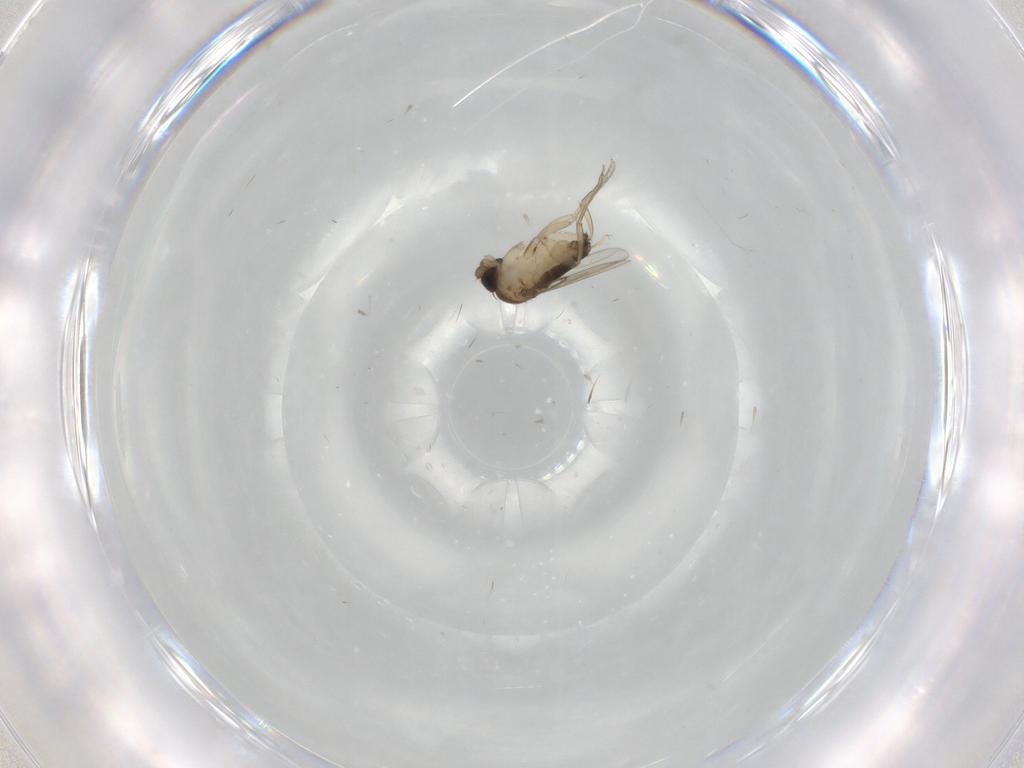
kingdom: Animalia
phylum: Arthropoda
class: Insecta
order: Diptera
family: Phoridae
